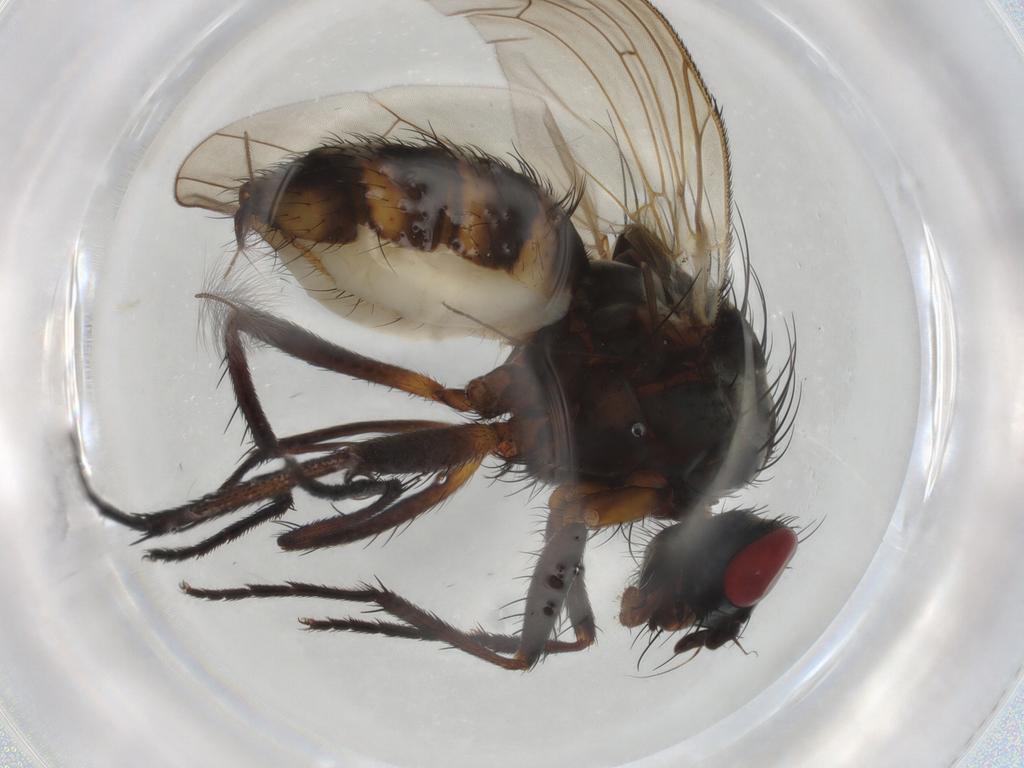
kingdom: Animalia
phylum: Arthropoda
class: Insecta
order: Diptera
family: Anthomyiidae
